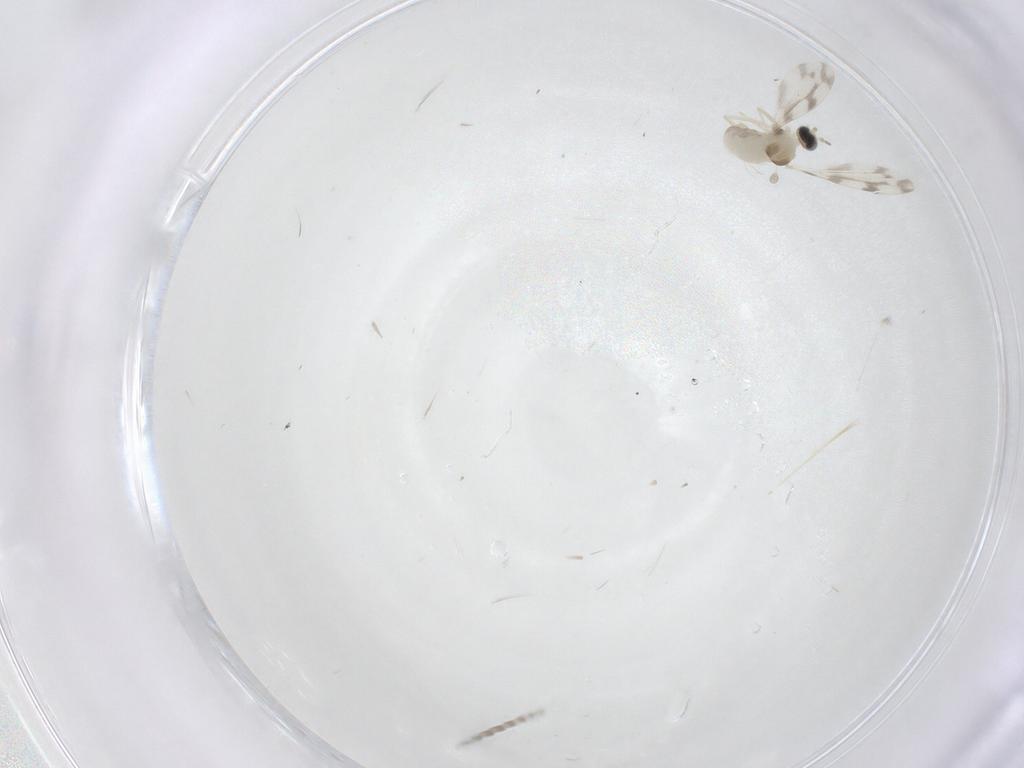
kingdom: Animalia
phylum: Arthropoda
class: Insecta
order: Diptera
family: Cecidomyiidae
